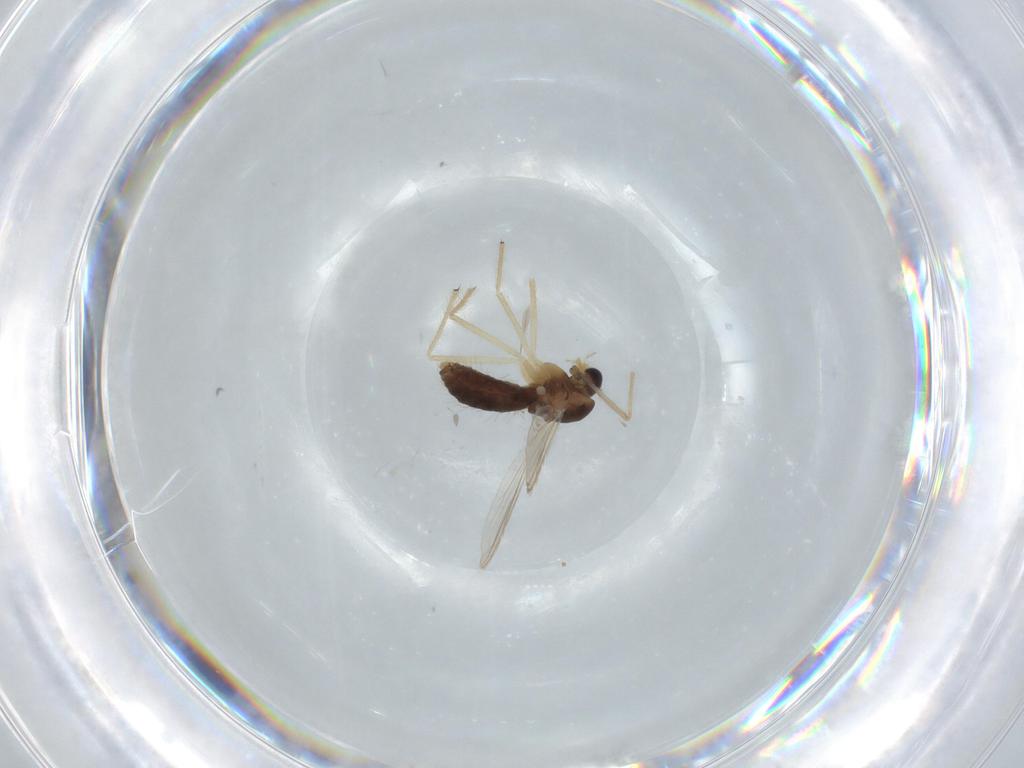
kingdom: Animalia
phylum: Arthropoda
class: Insecta
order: Diptera
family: Chironomidae
